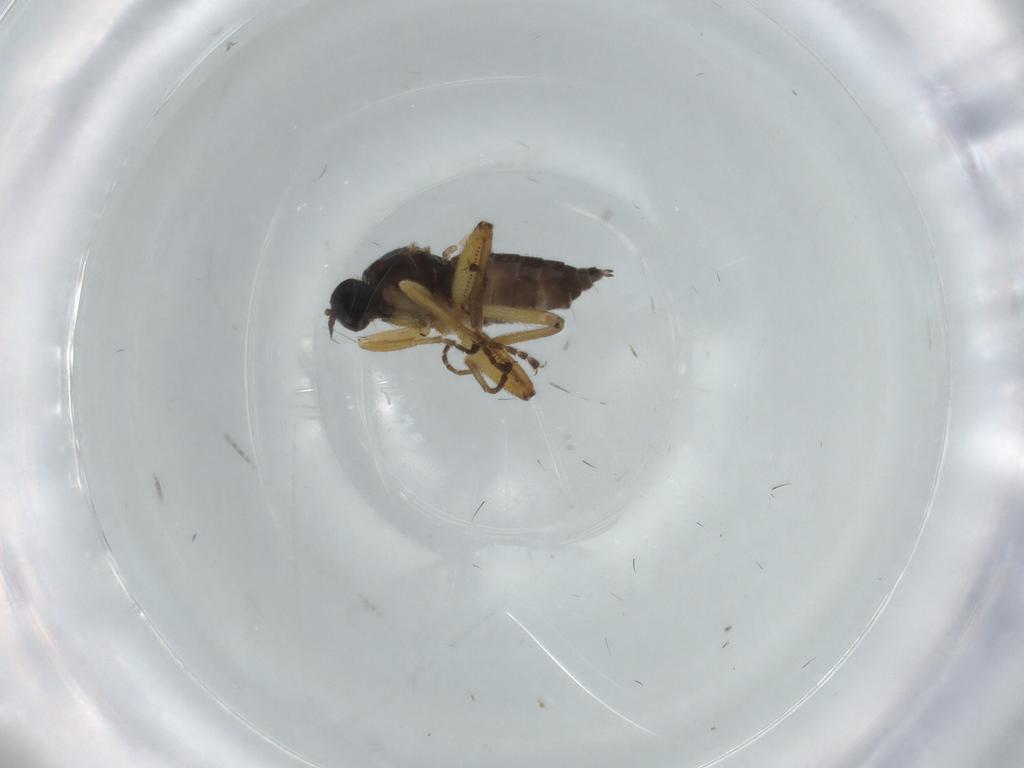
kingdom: Animalia
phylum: Arthropoda
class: Insecta
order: Diptera
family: Hybotidae
